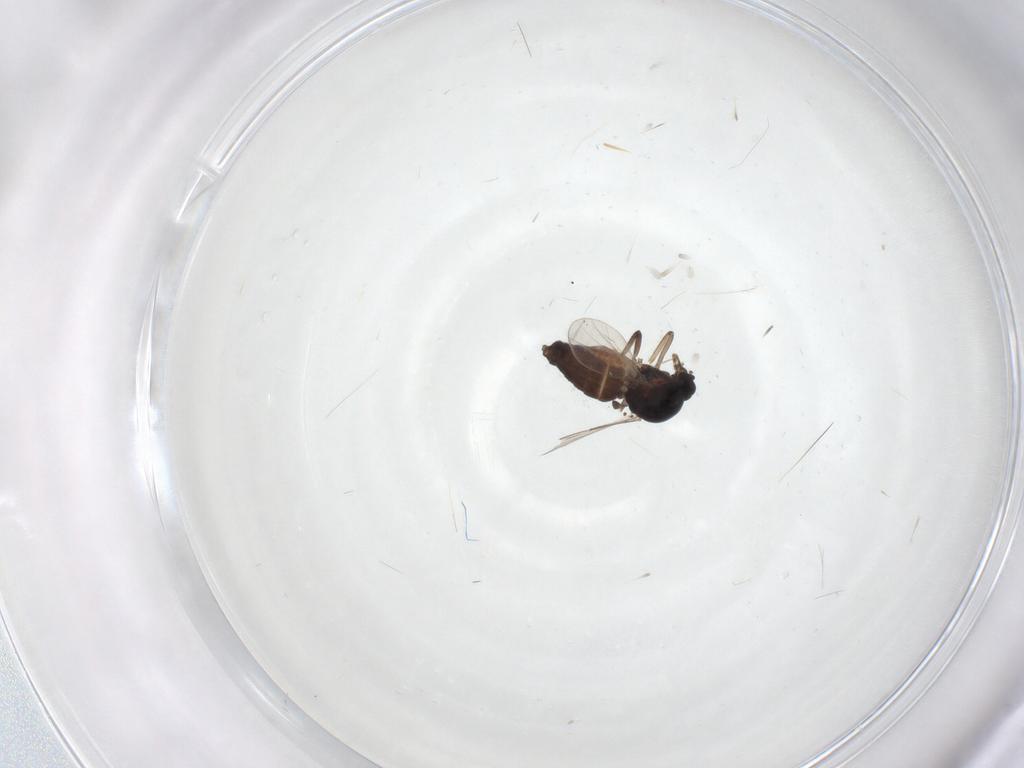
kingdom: Animalia
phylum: Arthropoda
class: Insecta
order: Diptera
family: Ceratopogonidae
